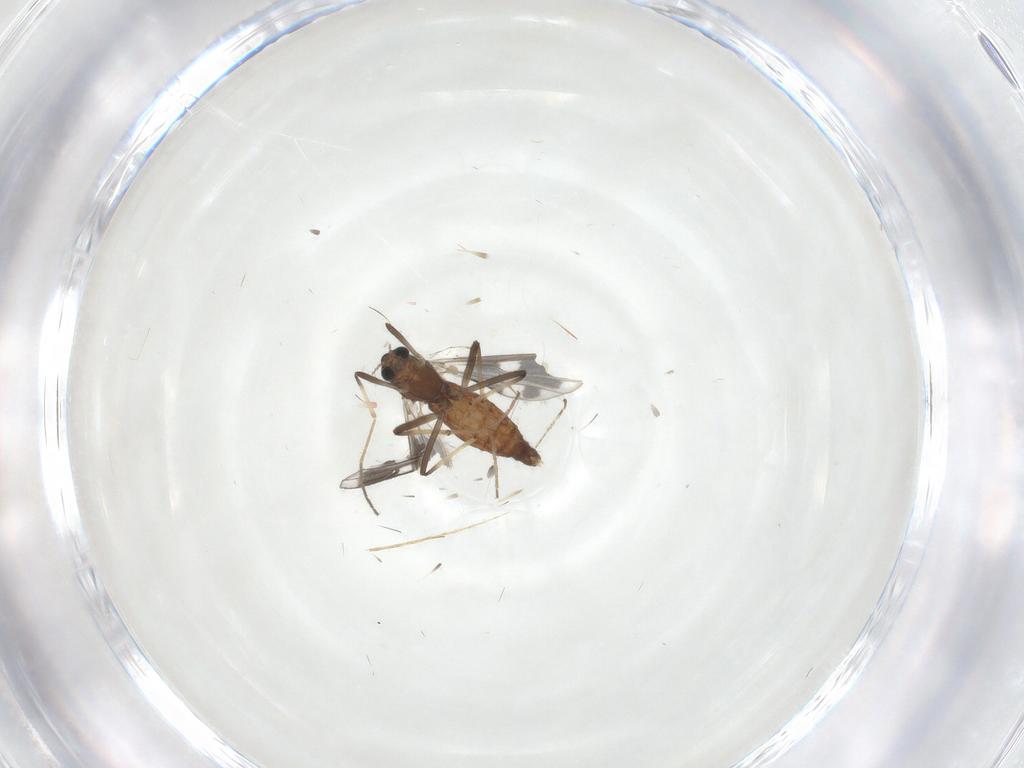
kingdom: Animalia
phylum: Arthropoda
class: Insecta
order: Diptera
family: Chironomidae
